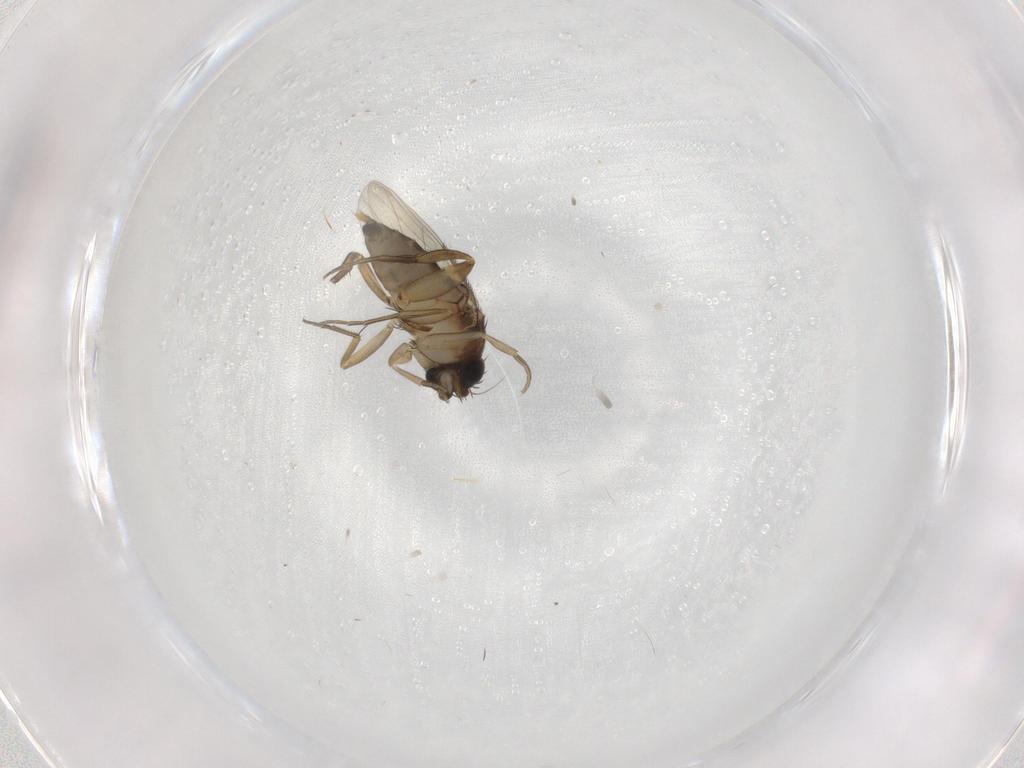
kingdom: Animalia
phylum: Arthropoda
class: Insecta
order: Diptera
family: Phoridae
